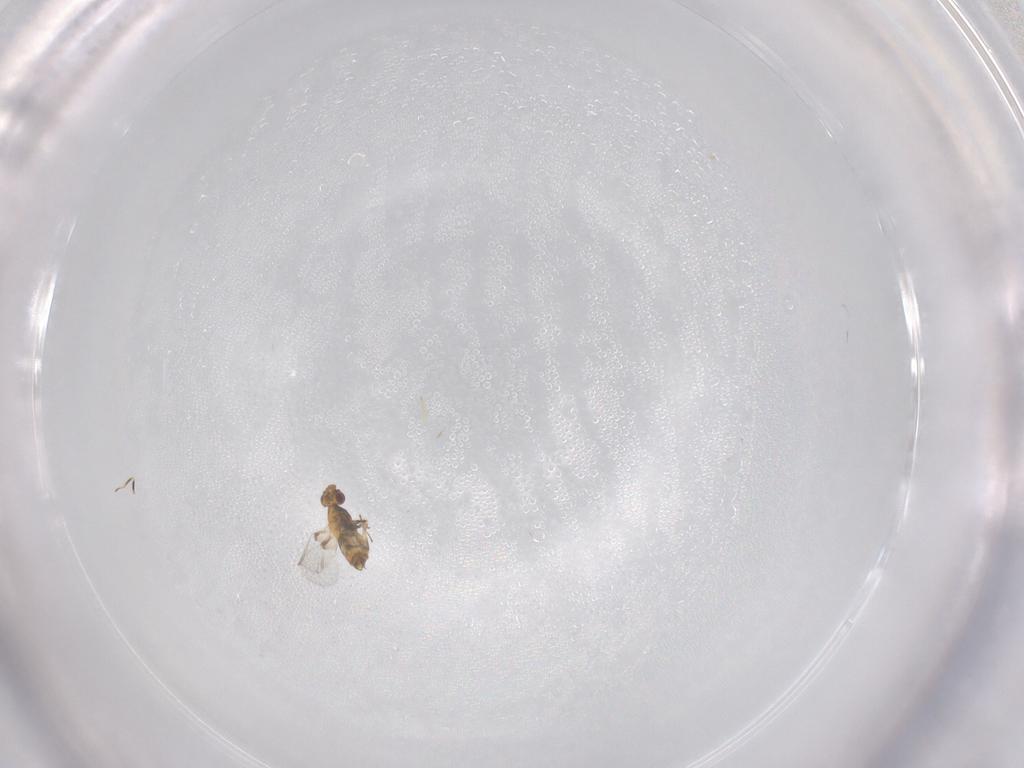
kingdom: Animalia
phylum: Arthropoda
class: Insecta
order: Hymenoptera
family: Trichogrammatidae
